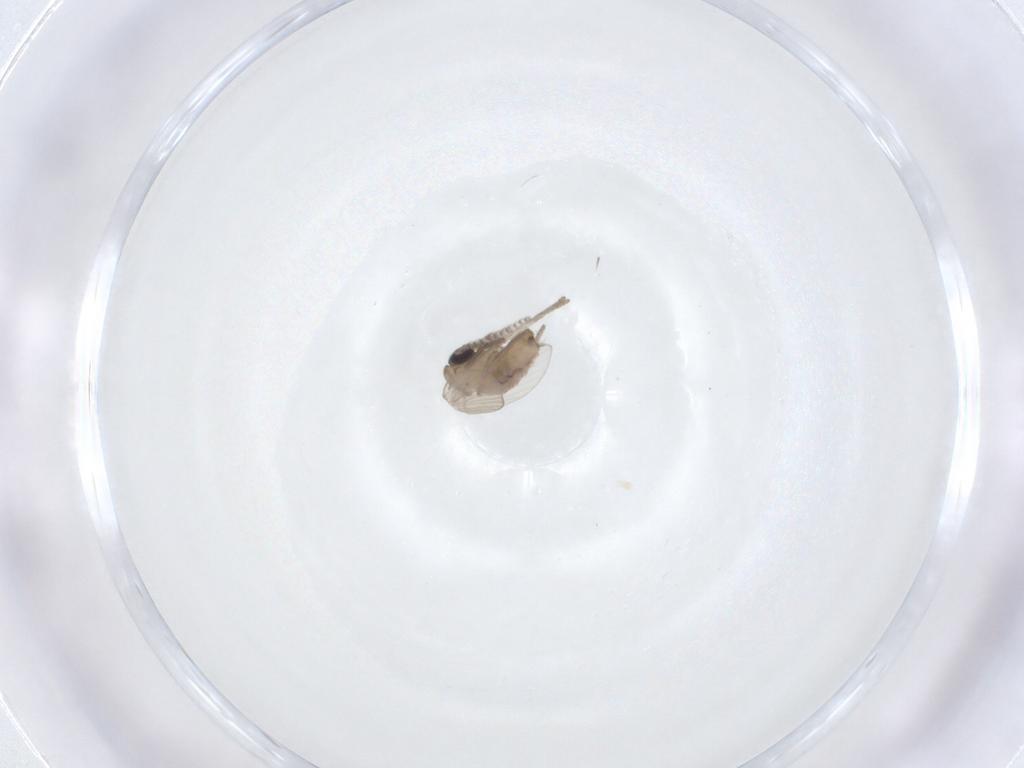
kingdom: Animalia
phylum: Arthropoda
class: Insecta
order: Diptera
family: Psychodidae
